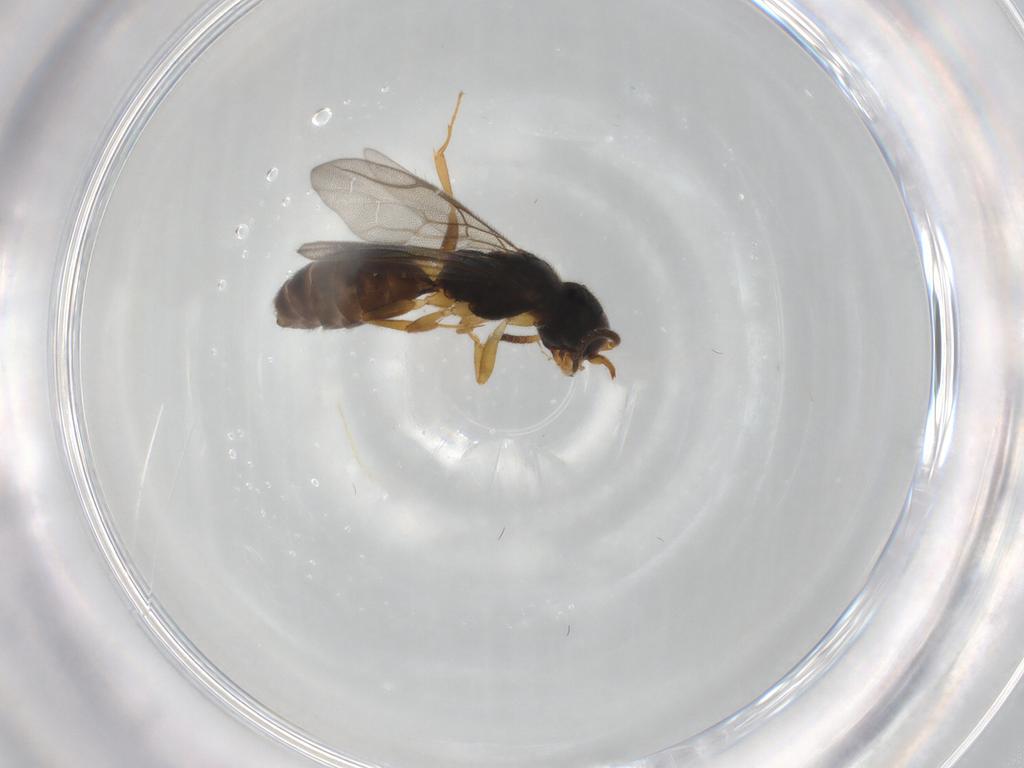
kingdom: Animalia
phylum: Arthropoda
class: Insecta
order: Hymenoptera
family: Bethylidae
